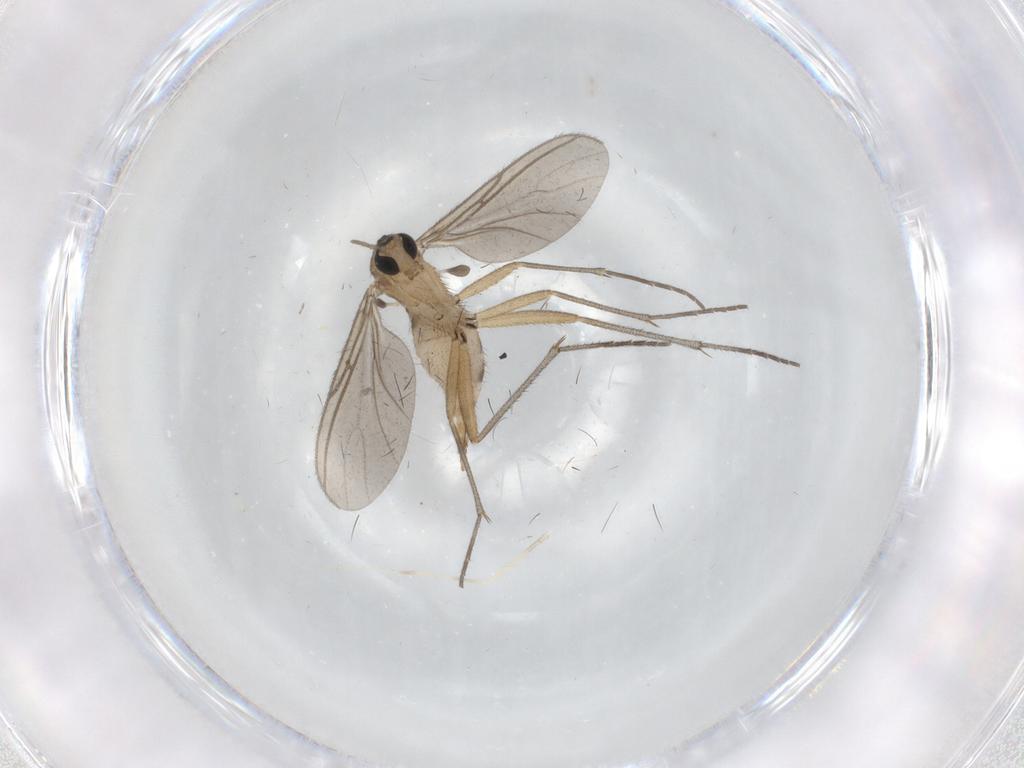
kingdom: Animalia
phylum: Arthropoda
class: Insecta
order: Diptera
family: Sciaridae
